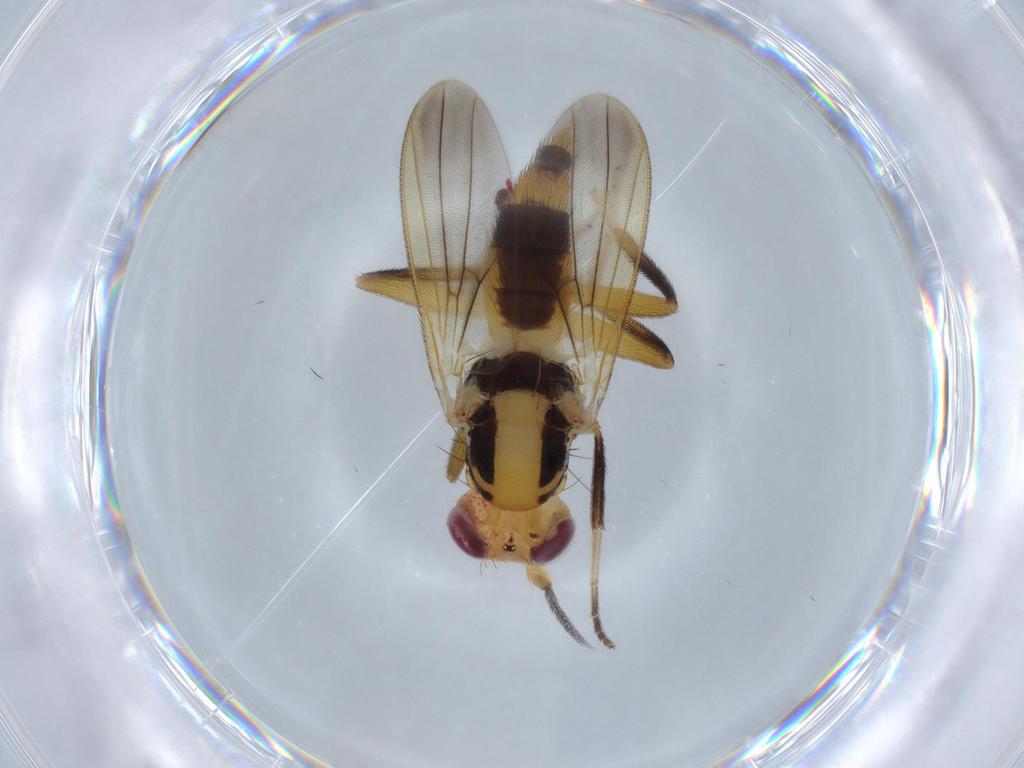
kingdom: Animalia
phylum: Arthropoda
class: Insecta
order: Diptera
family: Clusiidae
